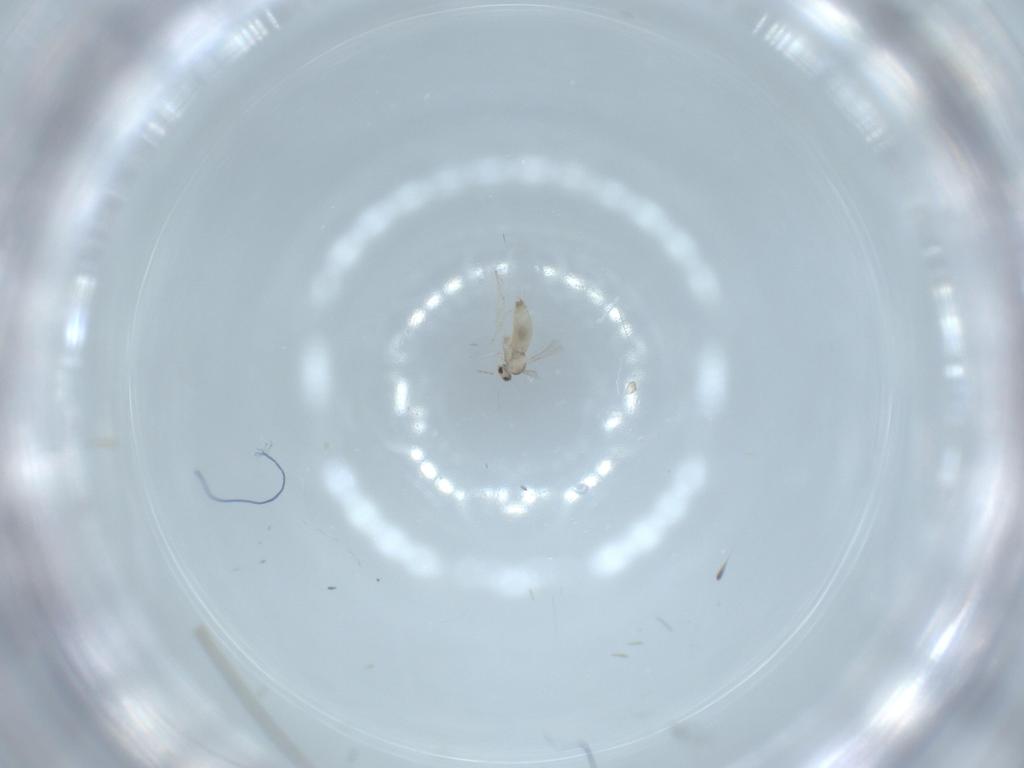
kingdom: Animalia
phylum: Arthropoda
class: Insecta
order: Diptera
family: Cecidomyiidae
